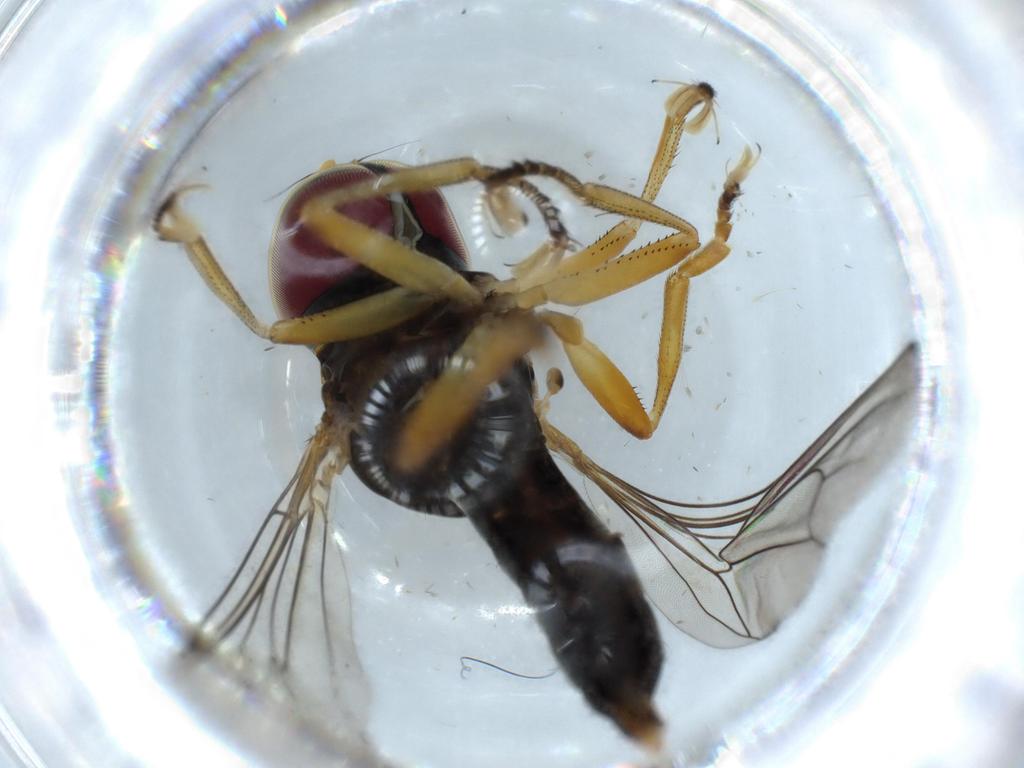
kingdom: Animalia
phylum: Arthropoda
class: Insecta
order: Diptera
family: Pipunculidae
